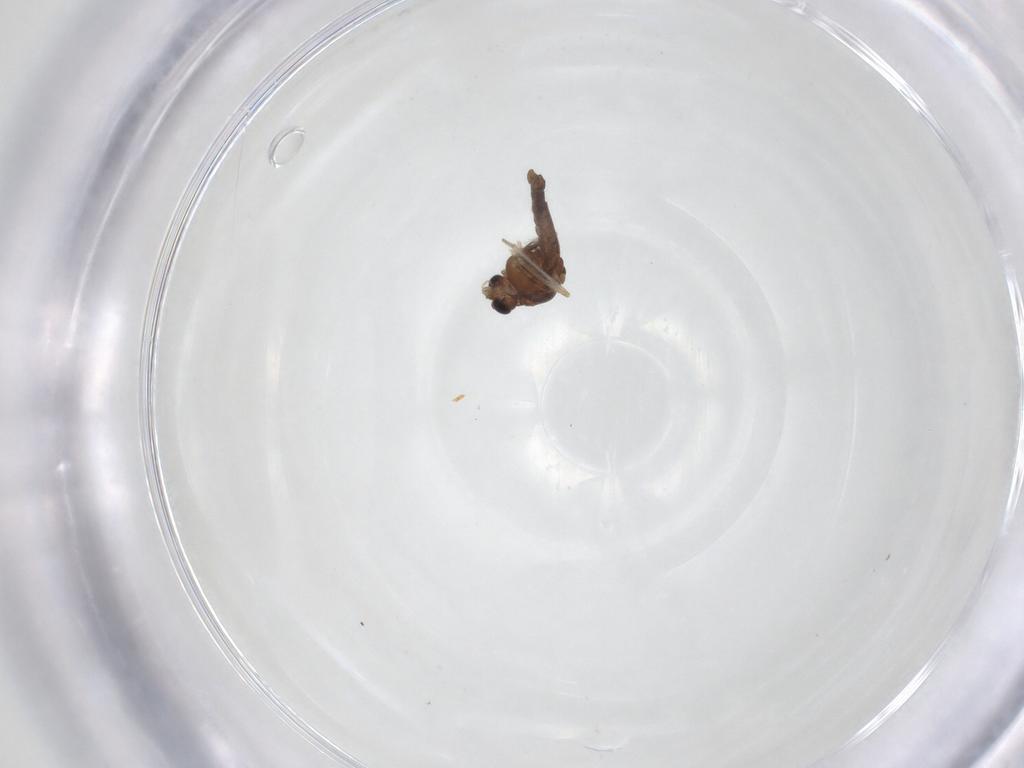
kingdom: Animalia
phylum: Arthropoda
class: Insecta
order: Diptera
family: Chironomidae
